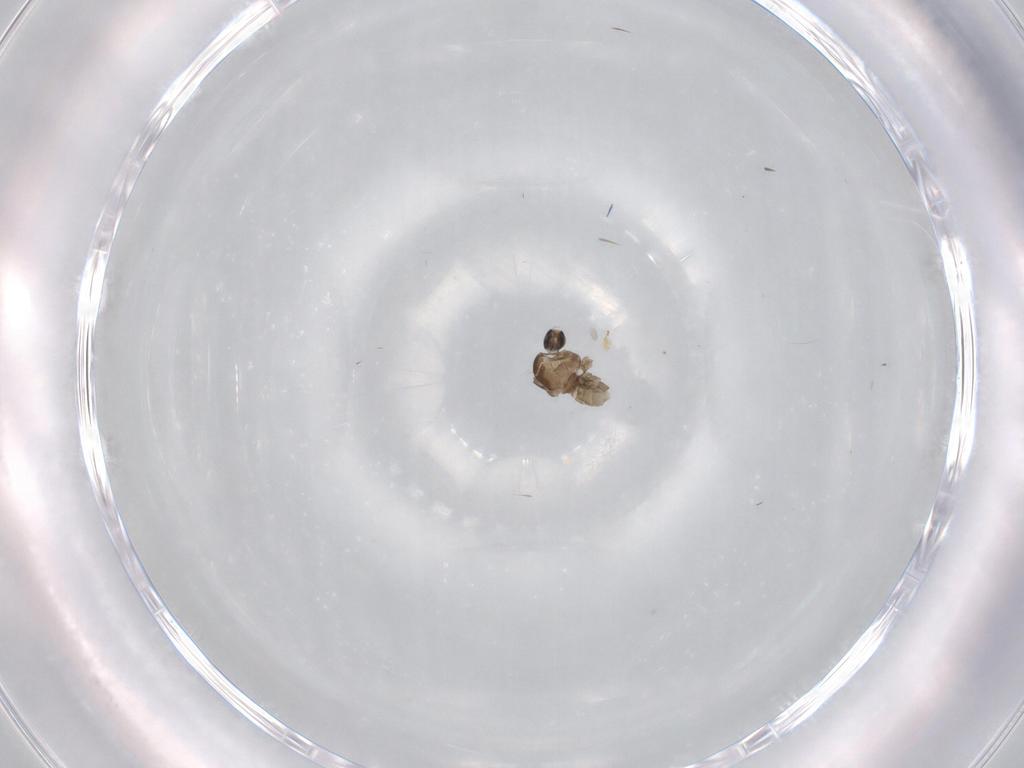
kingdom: Animalia
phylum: Arthropoda
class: Insecta
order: Diptera
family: Cecidomyiidae
